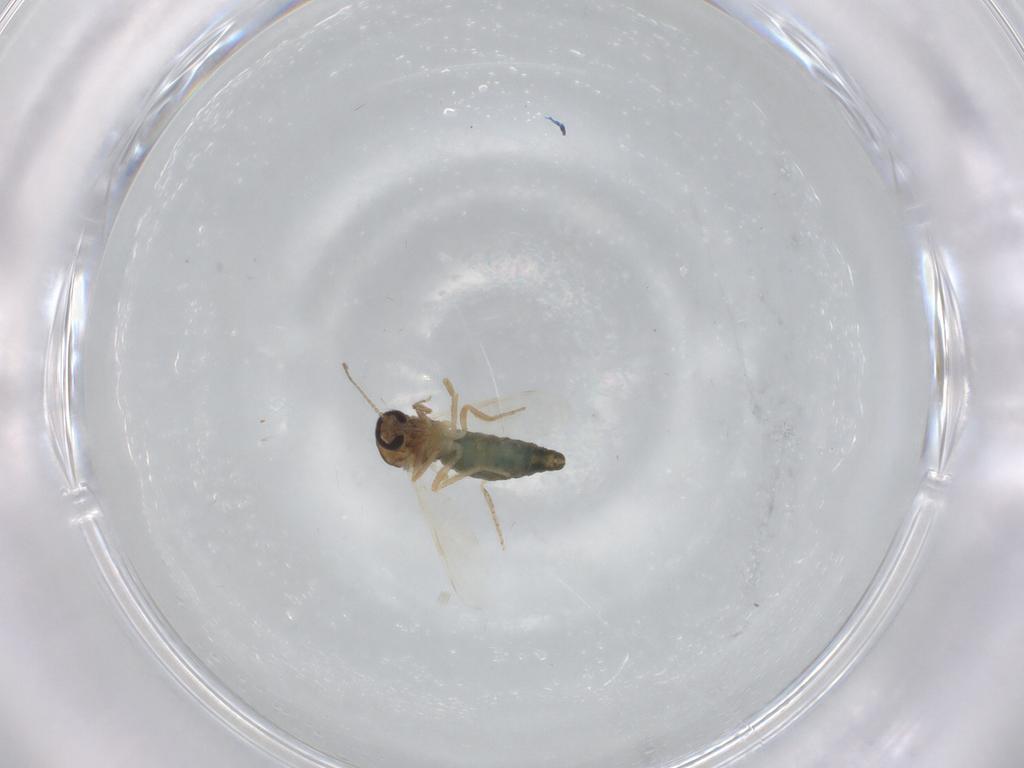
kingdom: Animalia
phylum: Arthropoda
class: Insecta
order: Diptera
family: Ceratopogonidae
